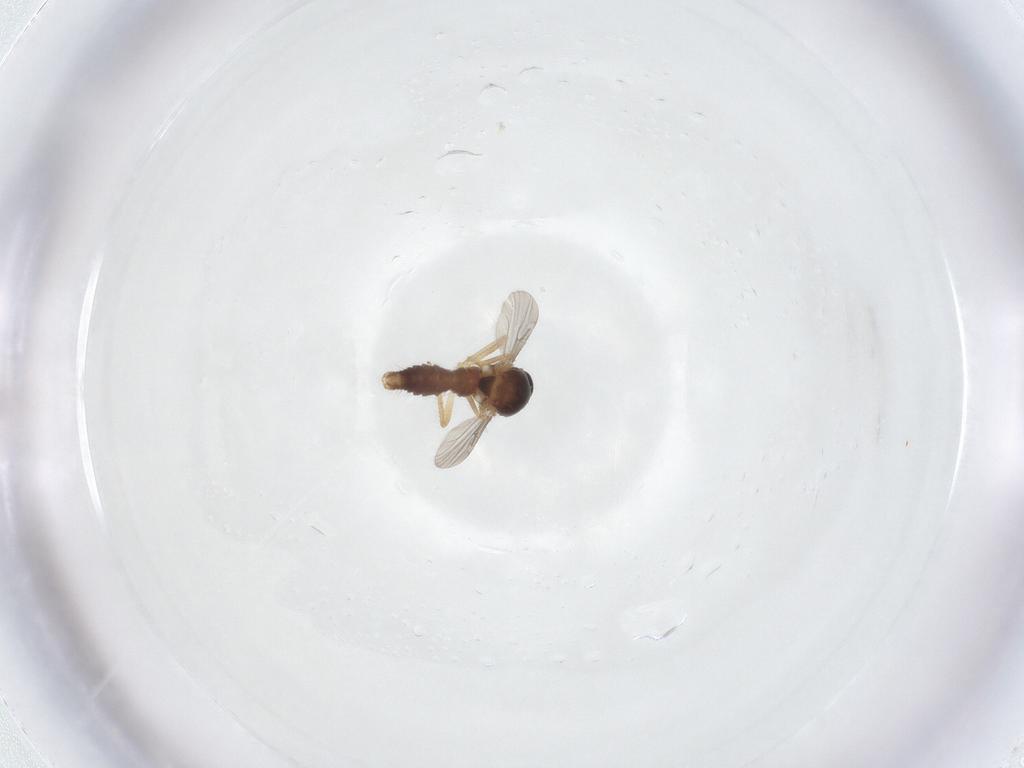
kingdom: Animalia
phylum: Arthropoda
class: Insecta
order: Diptera
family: Ceratopogonidae
